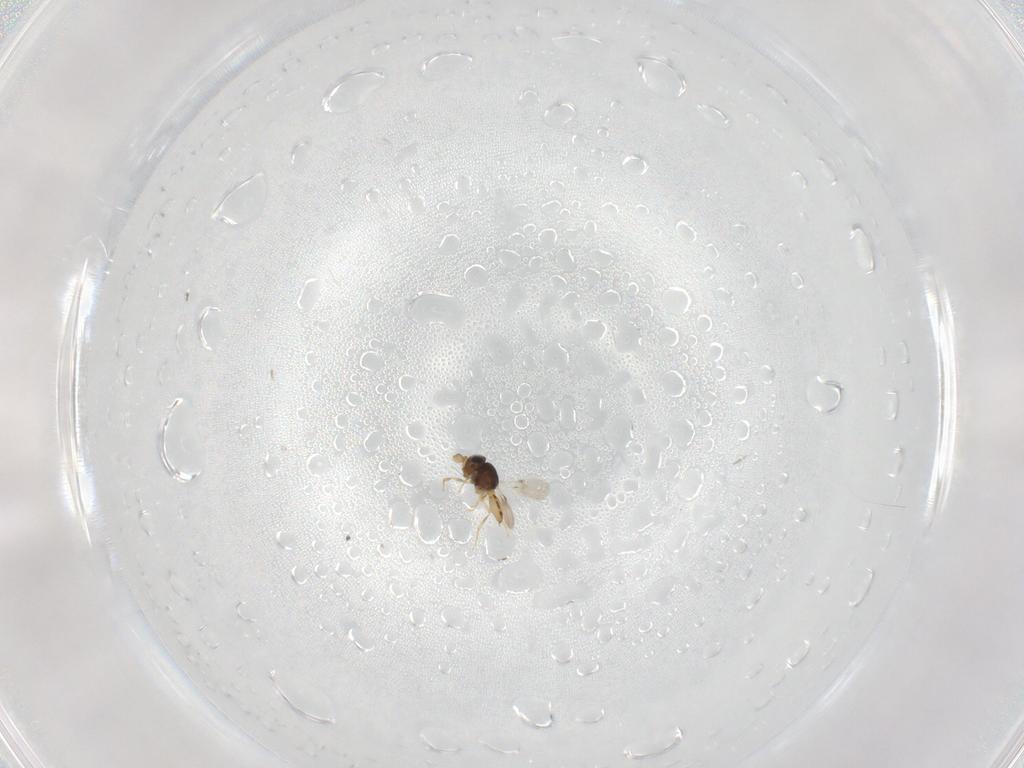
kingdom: Animalia
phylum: Arthropoda
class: Insecta
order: Hymenoptera
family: Scelionidae
